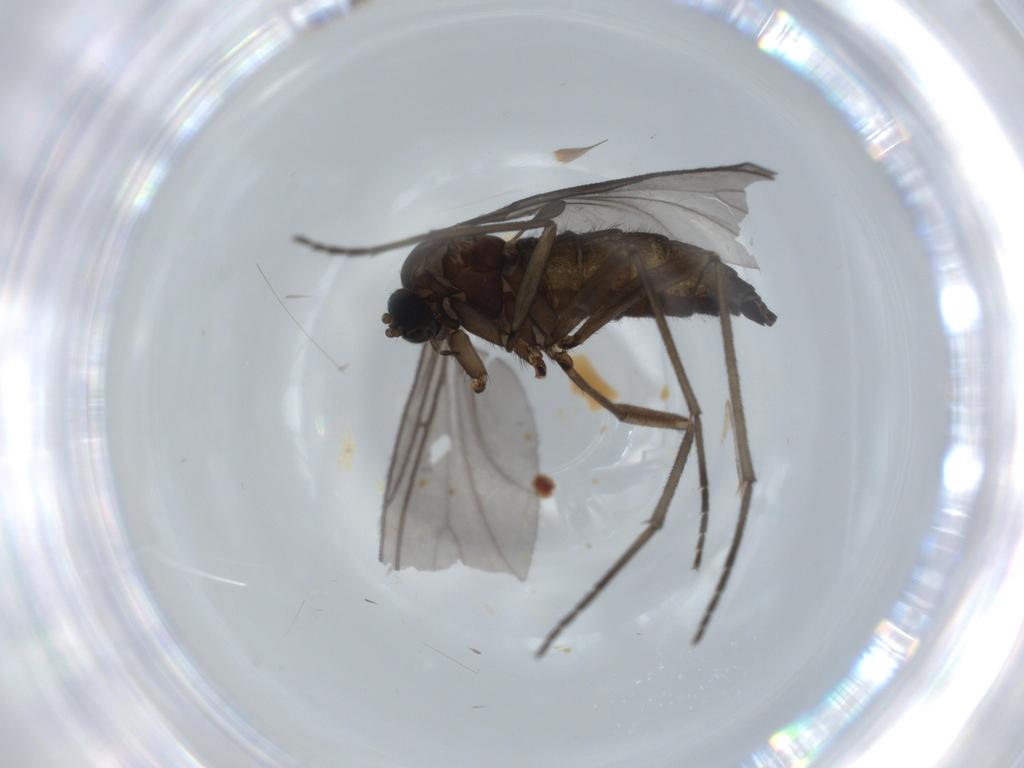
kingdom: Animalia
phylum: Arthropoda
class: Insecta
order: Diptera
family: Sciaridae
